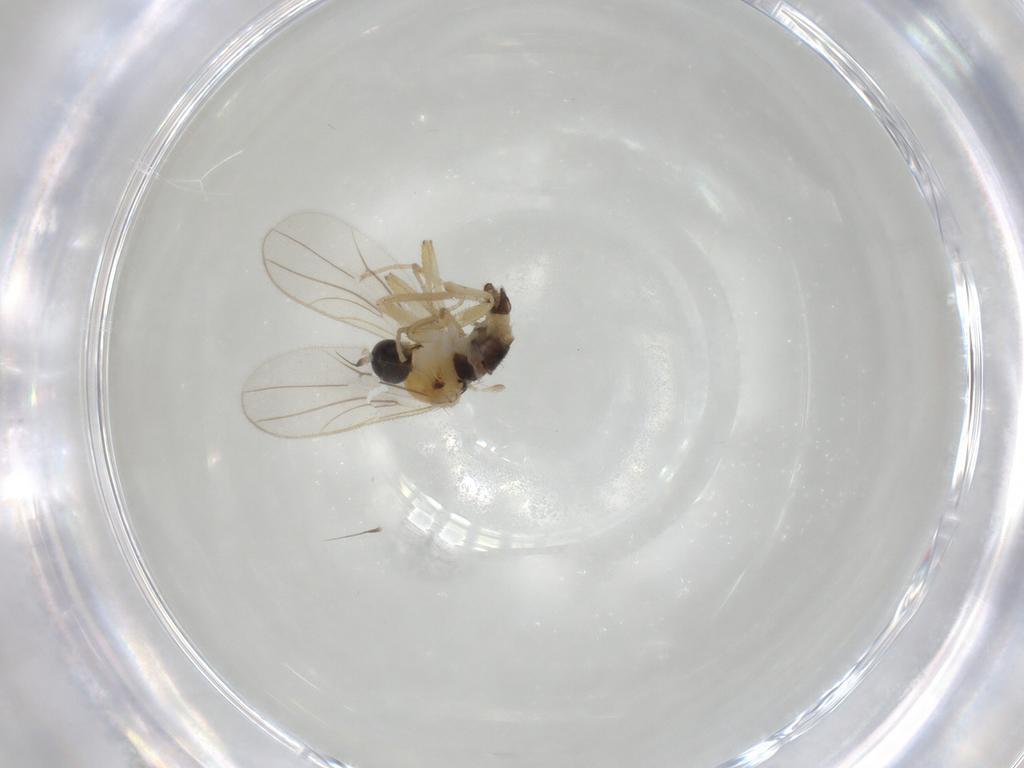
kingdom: Animalia
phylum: Arthropoda
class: Insecta
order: Diptera
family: Hybotidae
